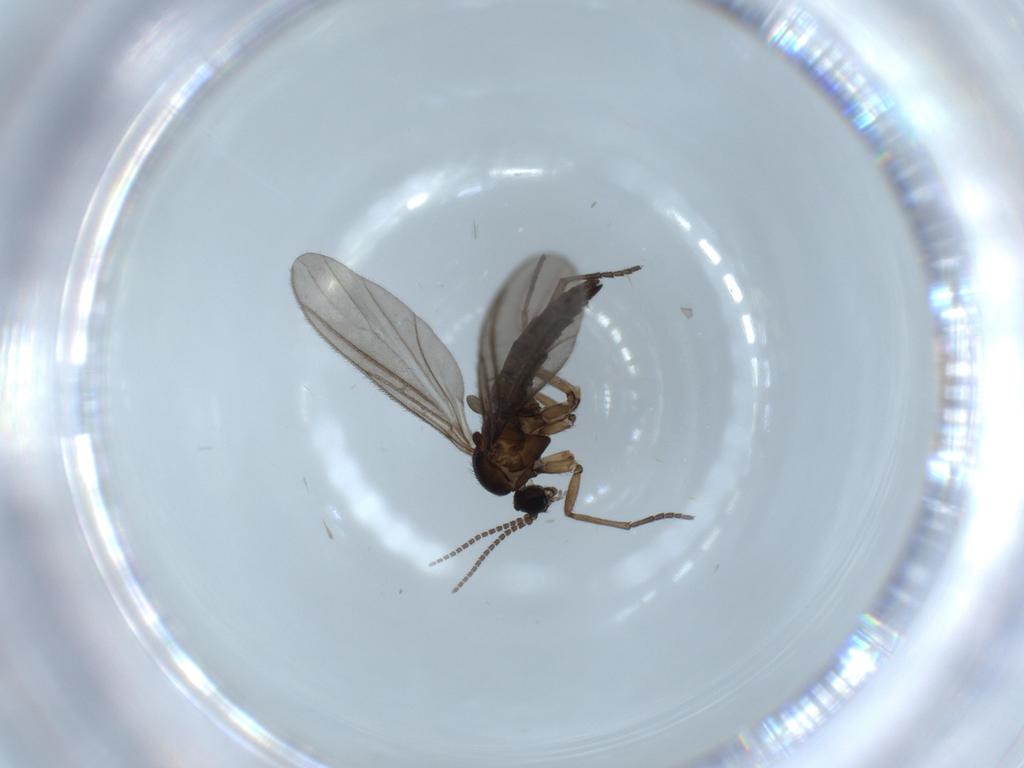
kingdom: Animalia
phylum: Arthropoda
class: Insecta
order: Diptera
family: Sciaridae
